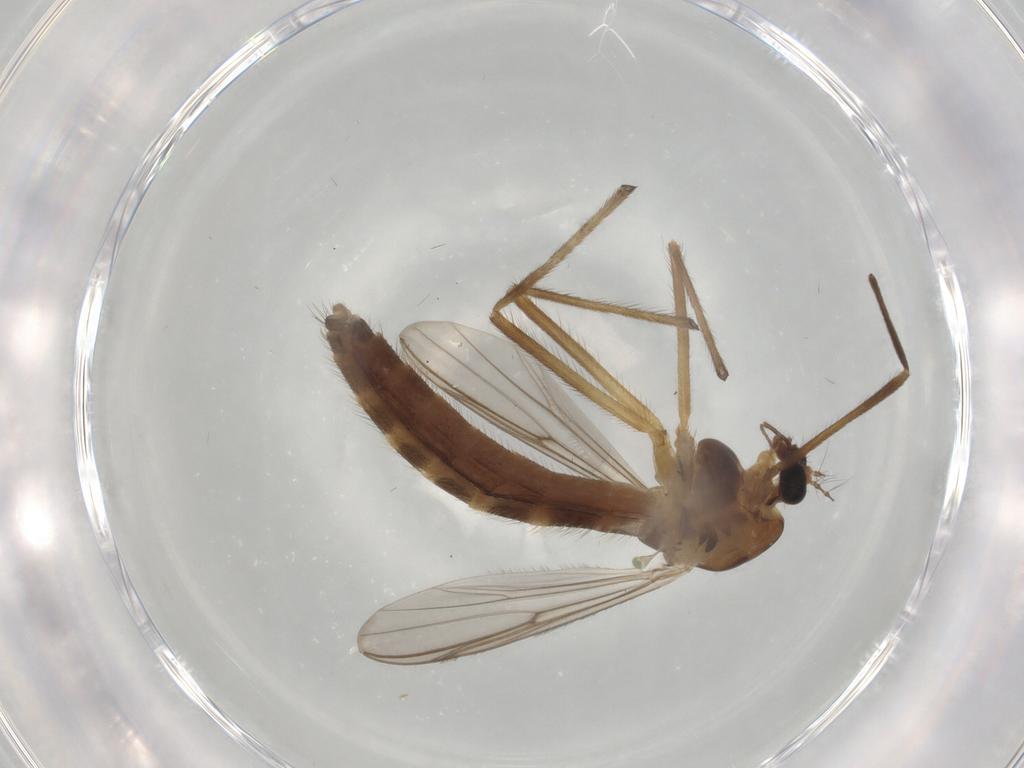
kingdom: Animalia
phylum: Arthropoda
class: Insecta
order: Diptera
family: Chironomidae
